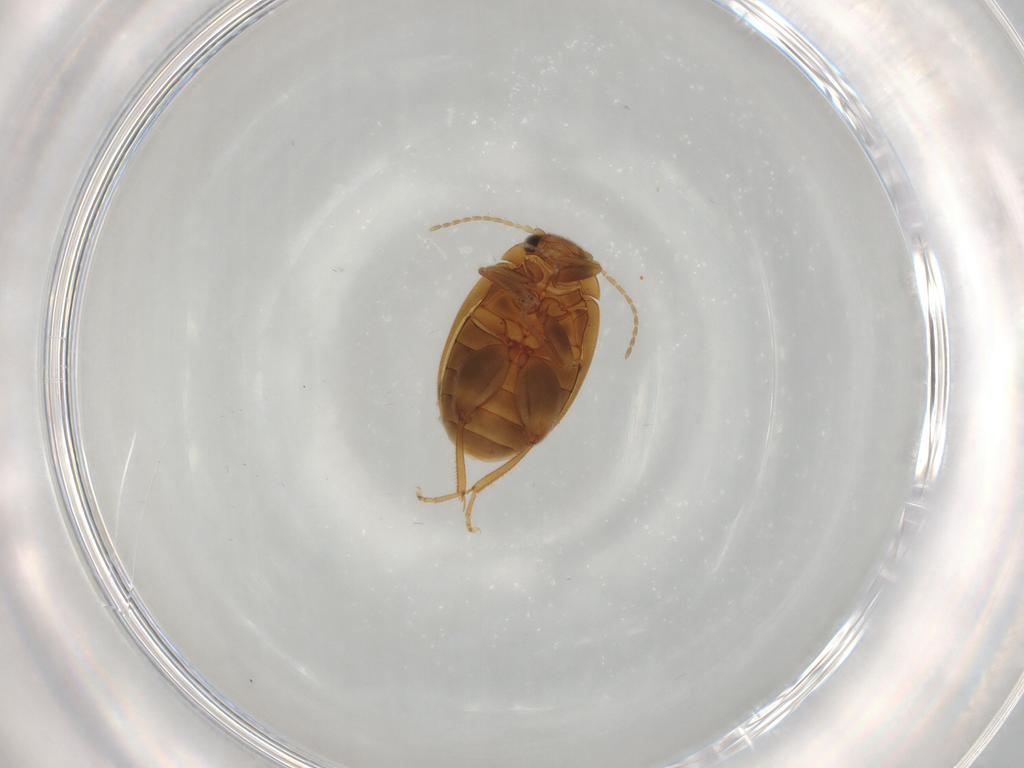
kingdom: Animalia
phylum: Arthropoda
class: Insecta
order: Coleoptera
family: Scirtidae
